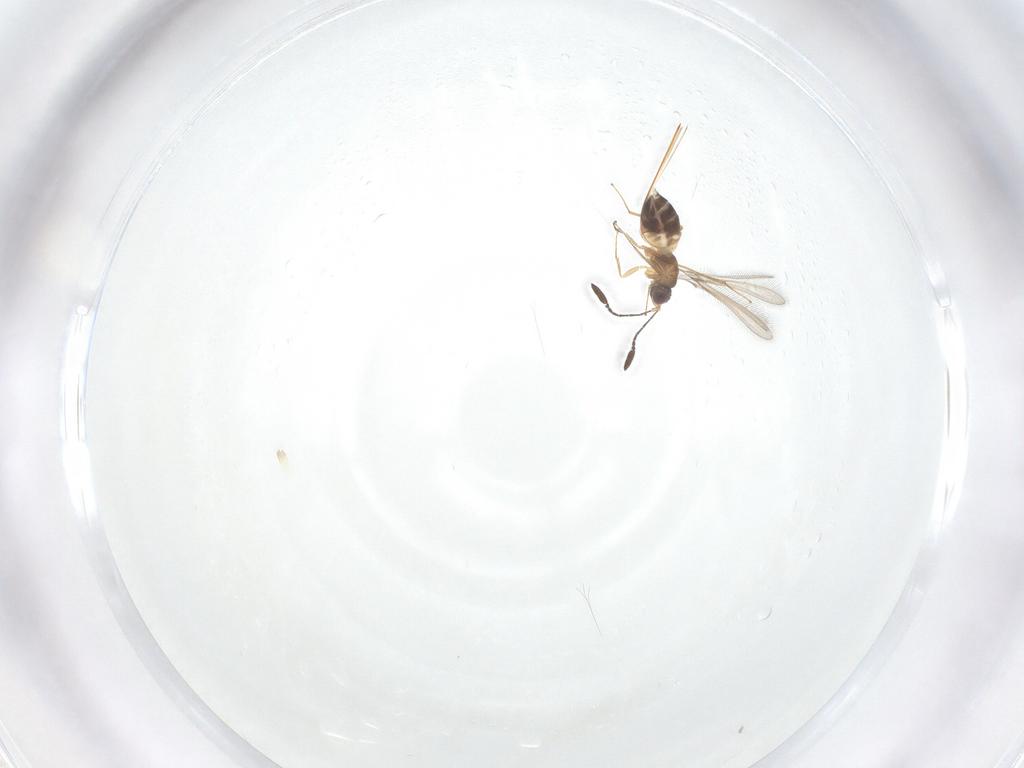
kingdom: Animalia
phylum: Arthropoda
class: Insecta
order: Hymenoptera
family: Mymaridae
